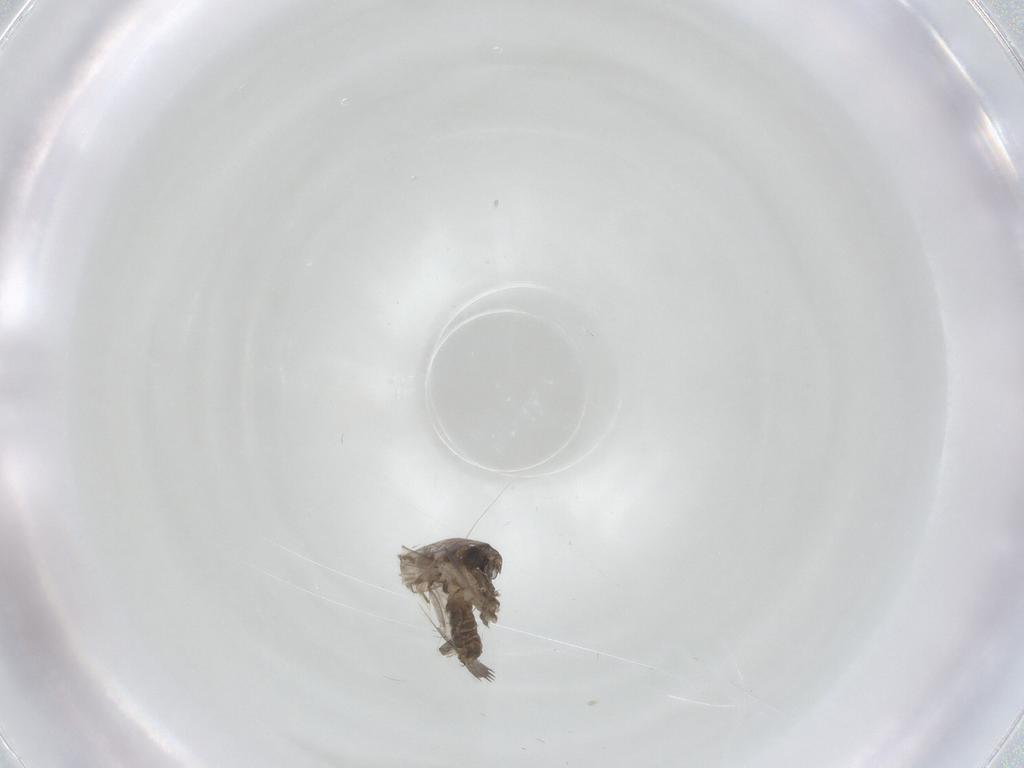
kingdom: Animalia
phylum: Arthropoda
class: Insecta
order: Diptera
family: Psychodidae
